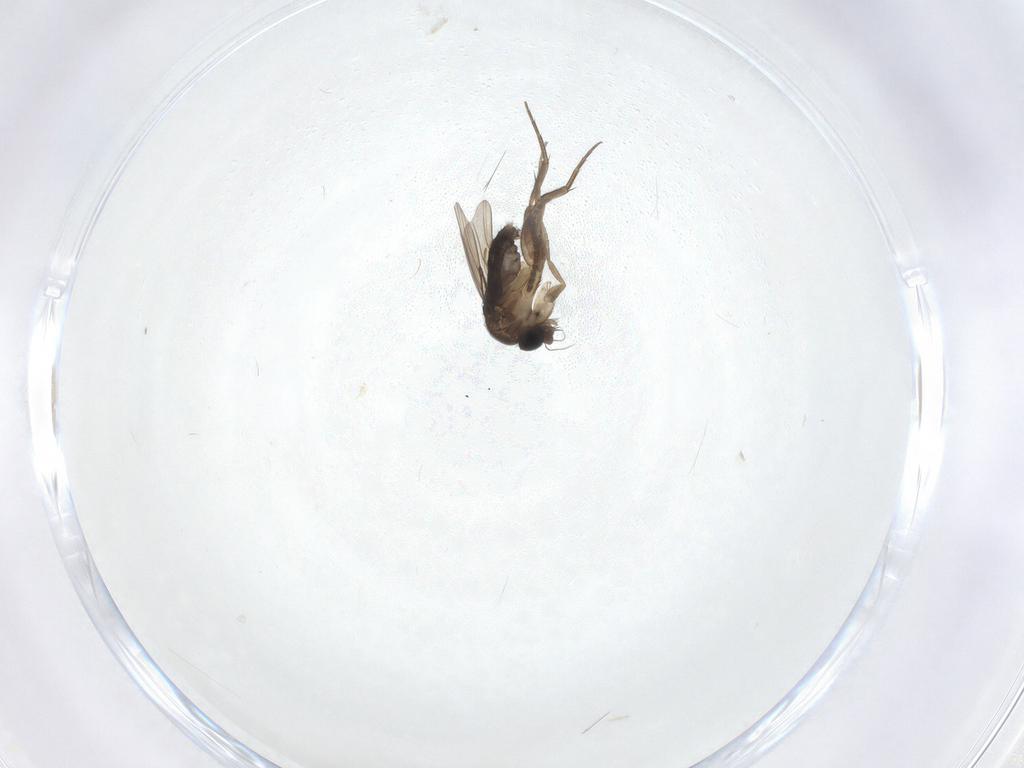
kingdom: Animalia
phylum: Arthropoda
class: Insecta
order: Diptera
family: Phoridae
